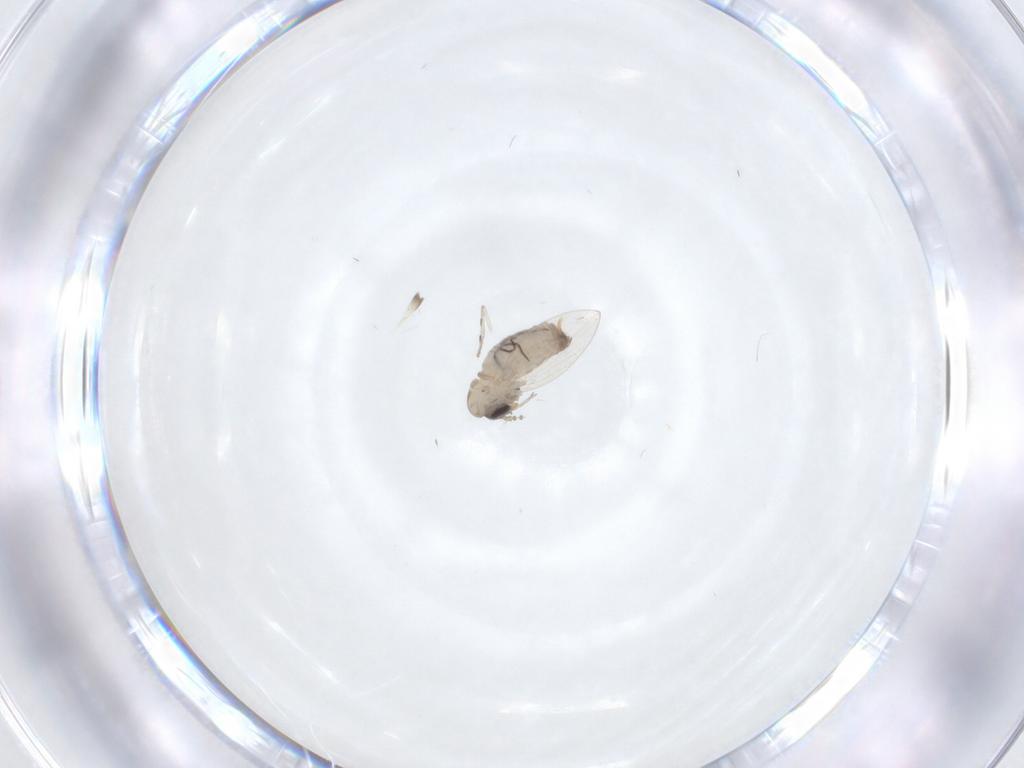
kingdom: Animalia
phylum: Arthropoda
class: Insecta
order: Diptera
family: Psychodidae
